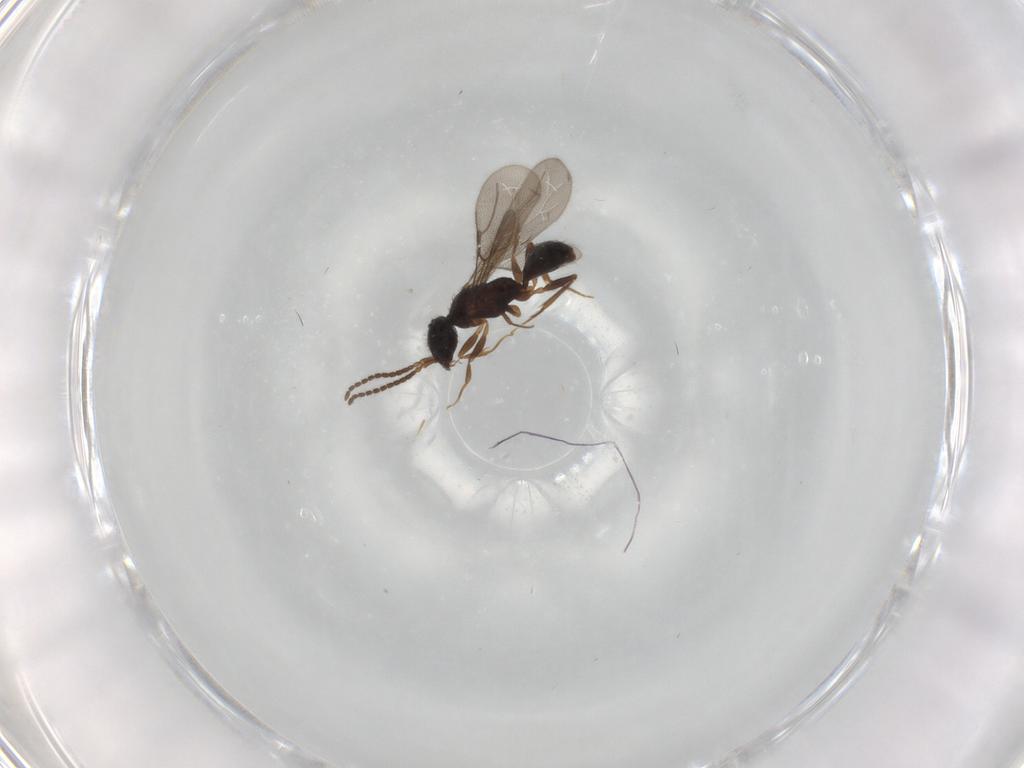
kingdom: Animalia
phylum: Arthropoda
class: Insecta
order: Hymenoptera
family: Bethylidae
